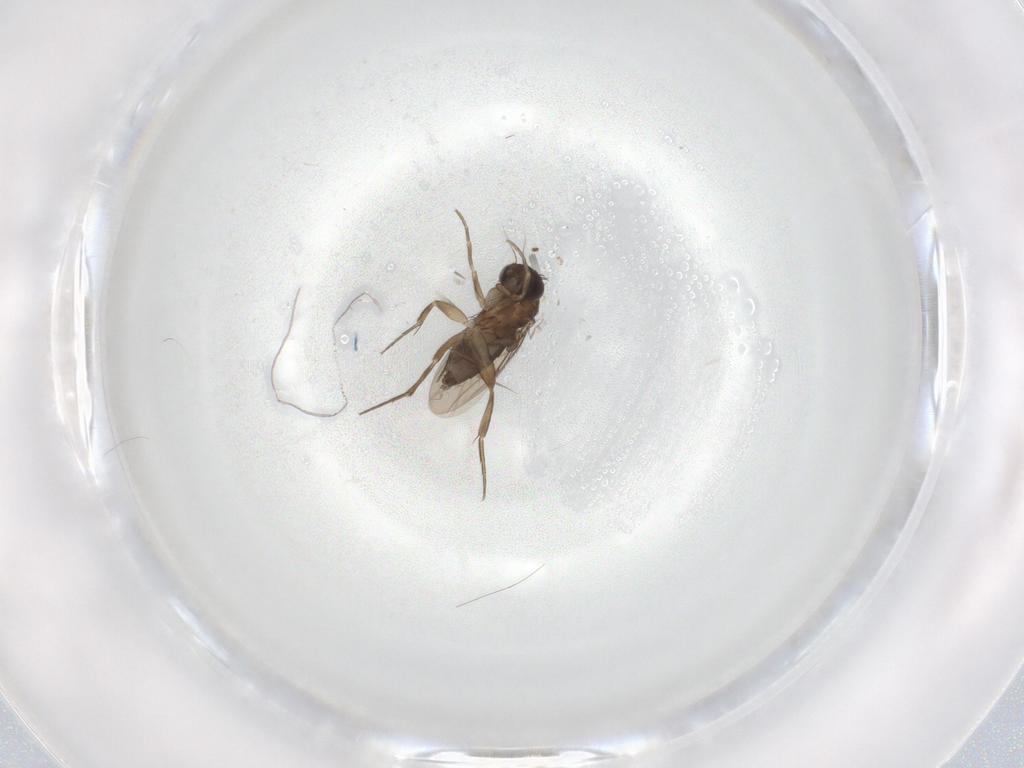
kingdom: Animalia
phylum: Arthropoda
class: Insecta
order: Diptera
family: Phoridae
